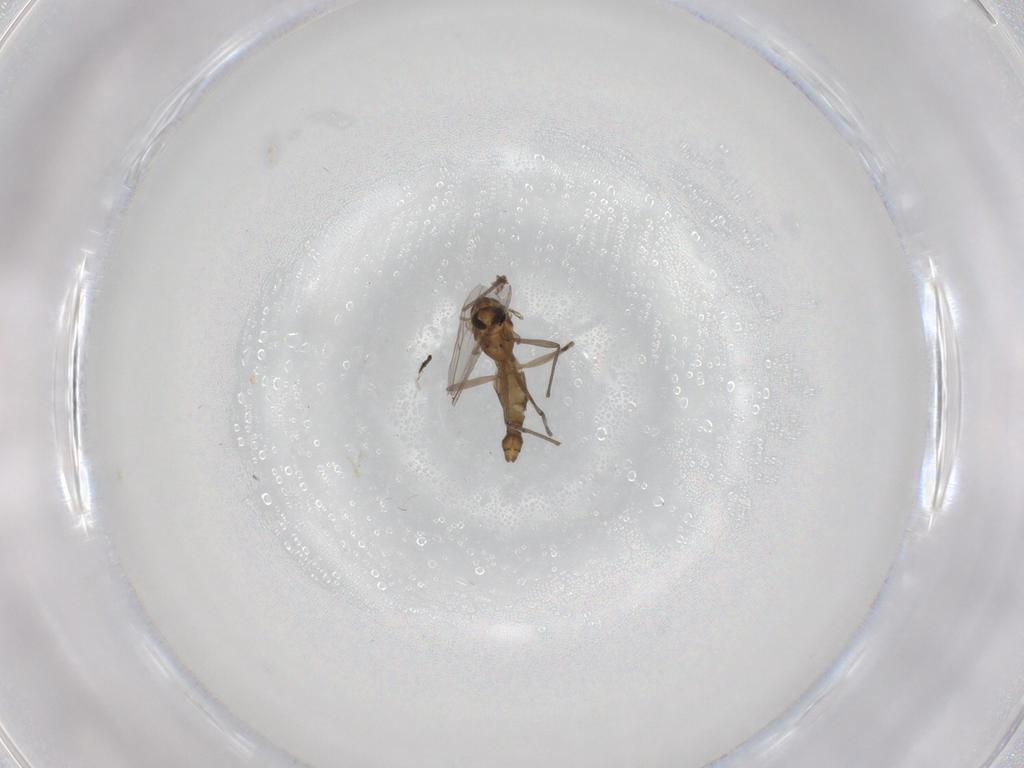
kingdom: Animalia
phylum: Arthropoda
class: Insecta
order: Diptera
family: Cecidomyiidae
